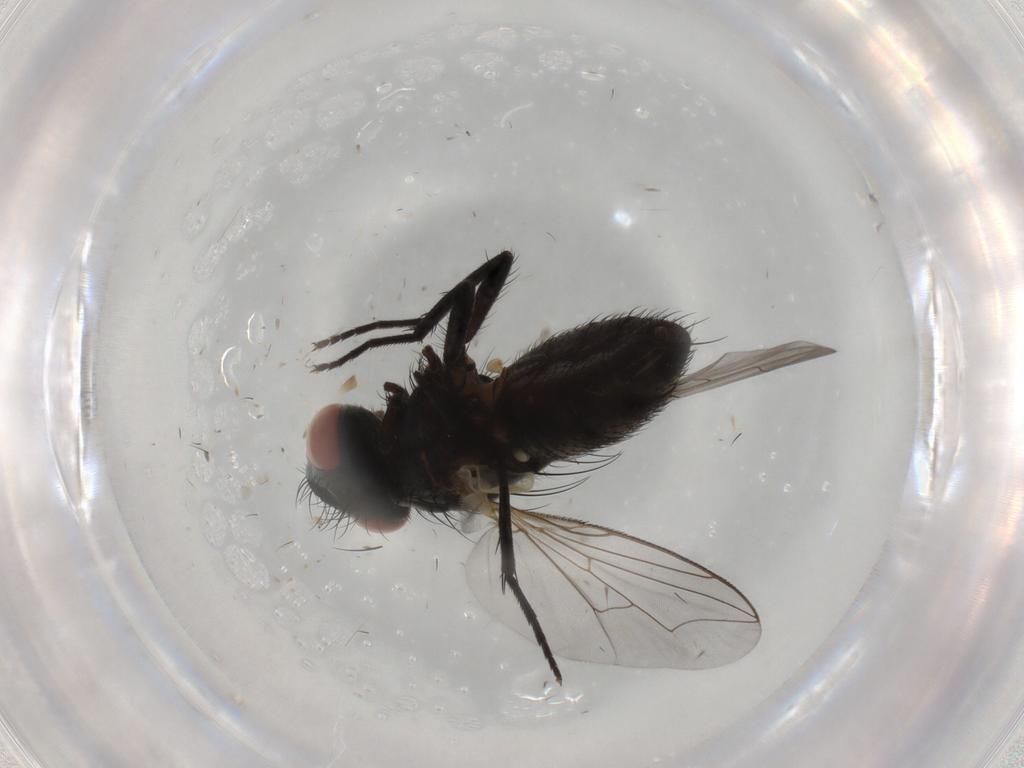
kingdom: Animalia
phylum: Arthropoda
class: Insecta
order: Diptera
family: Sarcophagidae
